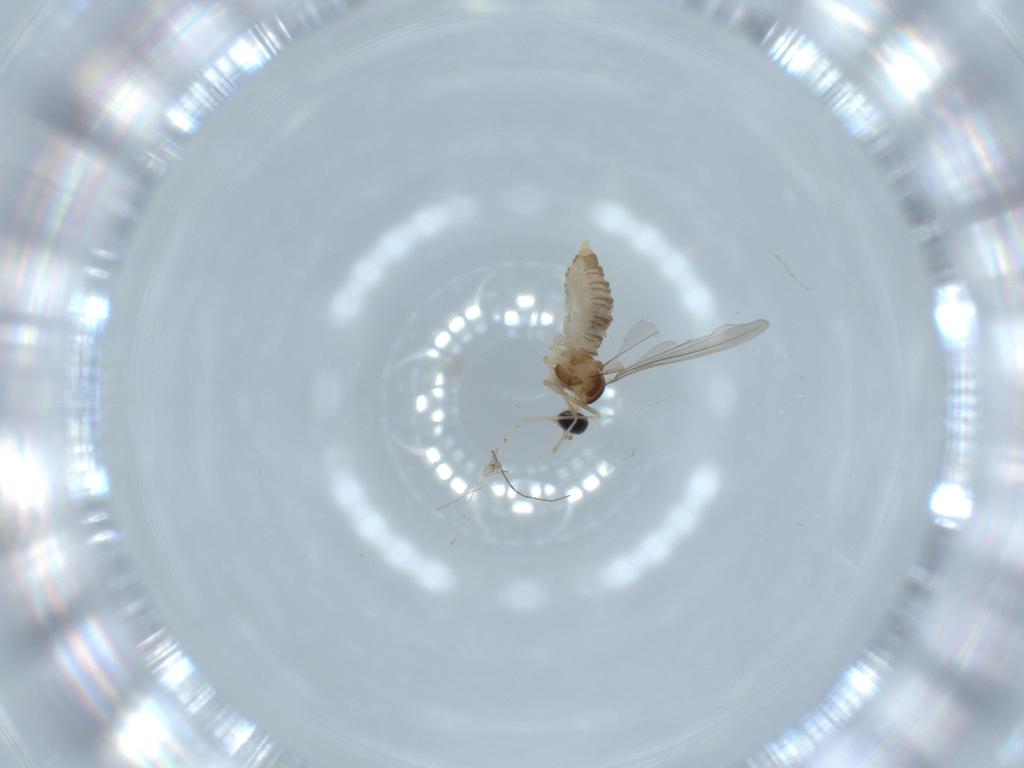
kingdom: Animalia
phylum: Arthropoda
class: Insecta
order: Diptera
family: Cecidomyiidae
